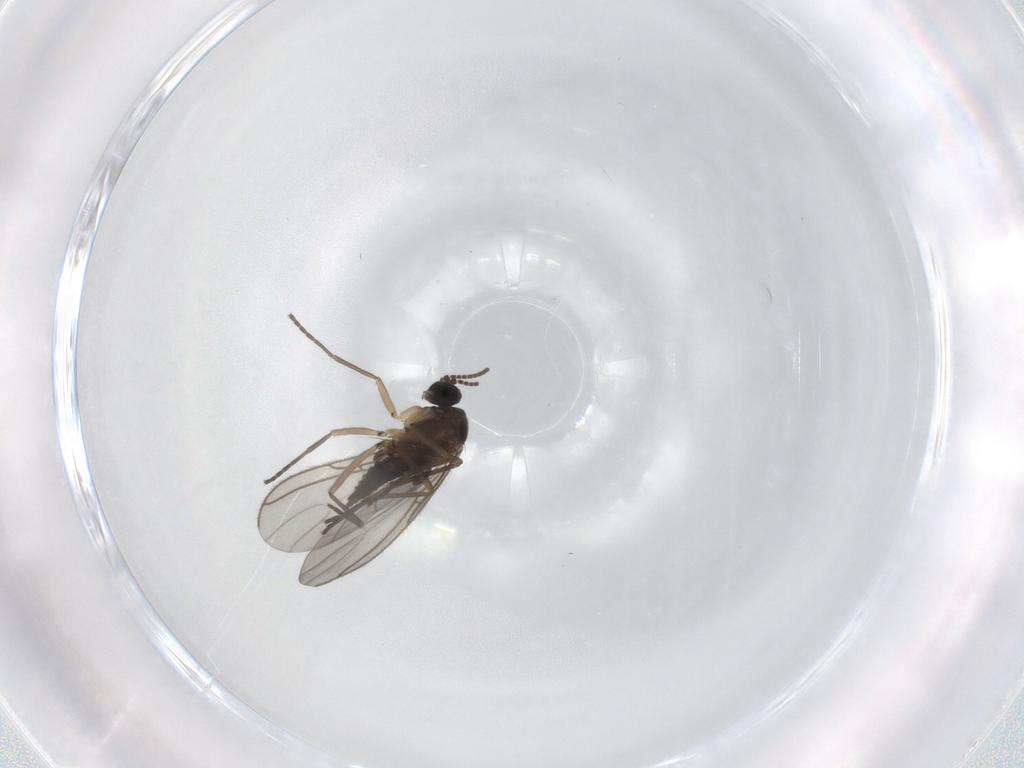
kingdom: Animalia
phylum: Arthropoda
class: Insecta
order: Diptera
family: Sciaridae
